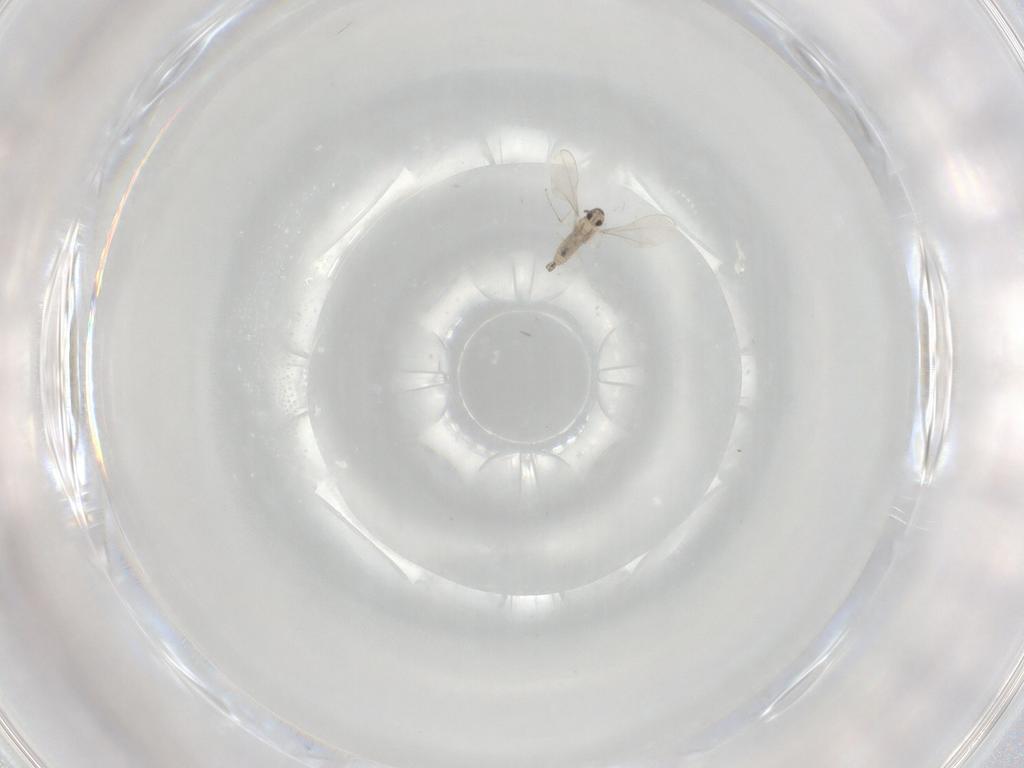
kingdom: Animalia
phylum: Arthropoda
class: Insecta
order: Diptera
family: Cecidomyiidae
